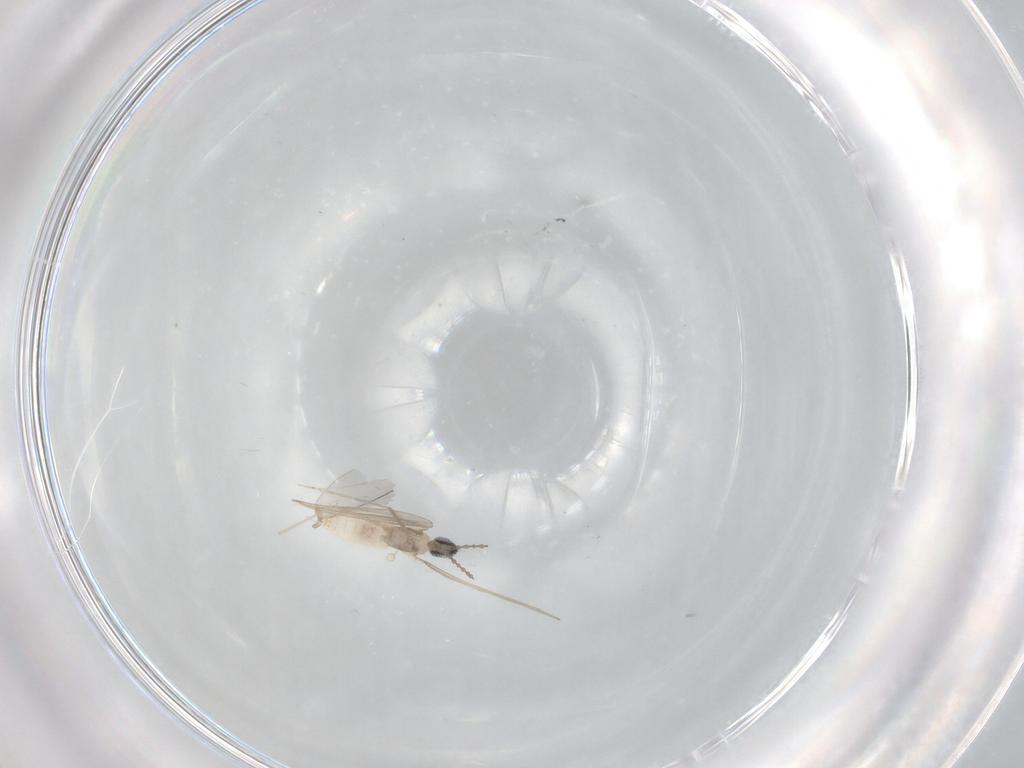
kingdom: Animalia
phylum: Arthropoda
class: Insecta
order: Diptera
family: Cecidomyiidae
